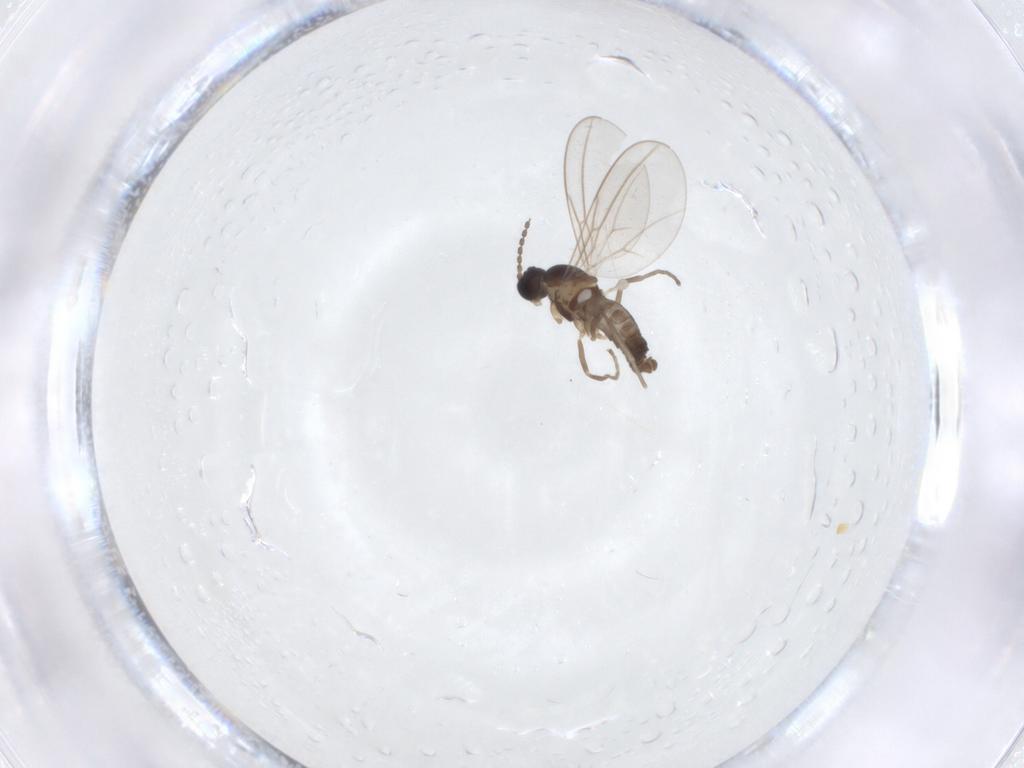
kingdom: Animalia
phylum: Arthropoda
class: Insecta
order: Diptera
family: Cecidomyiidae
